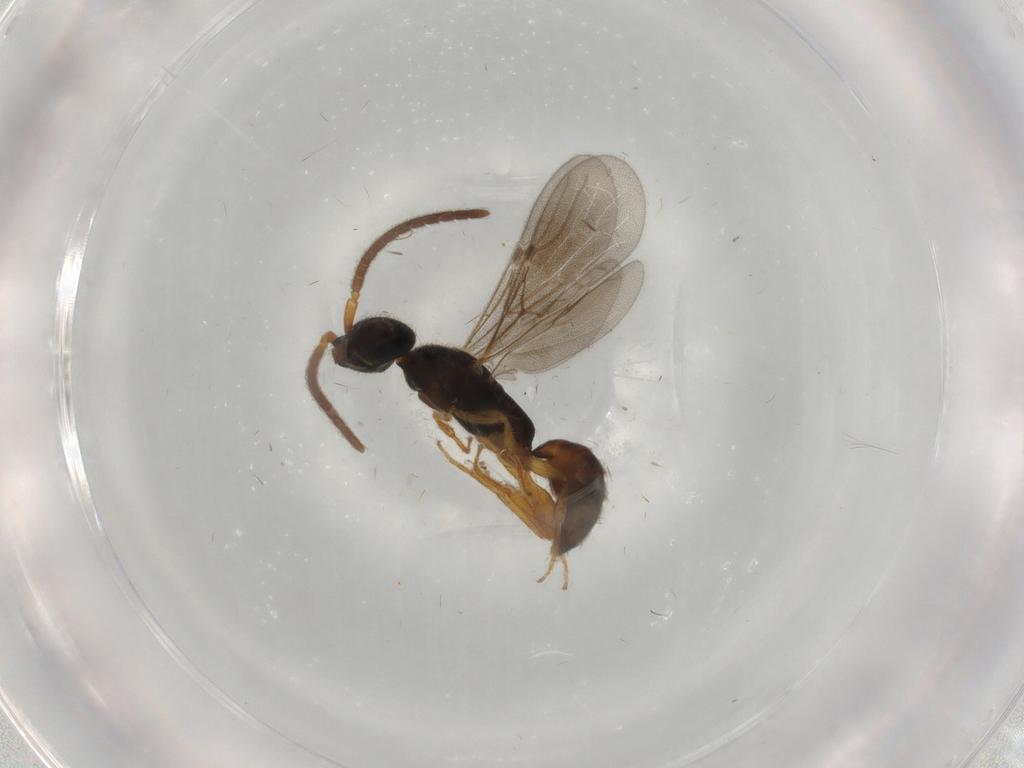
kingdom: Animalia
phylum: Arthropoda
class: Insecta
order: Hymenoptera
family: Bethylidae
